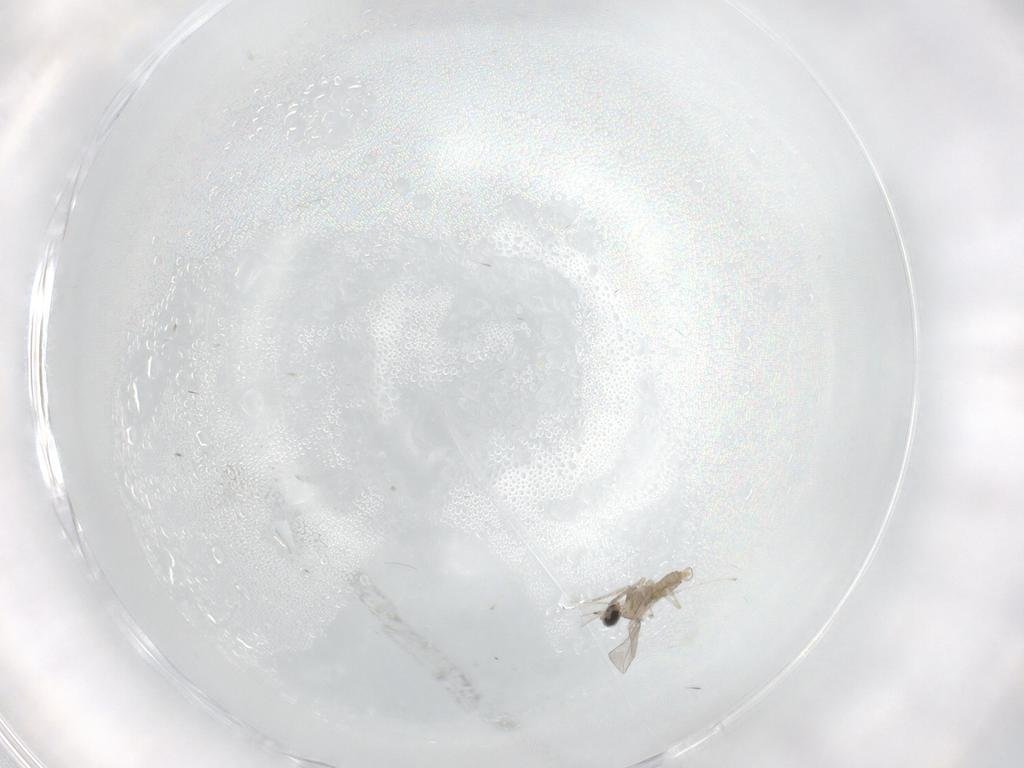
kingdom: Animalia
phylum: Arthropoda
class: Insecta
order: Diptera
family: Cecidomyiidae
